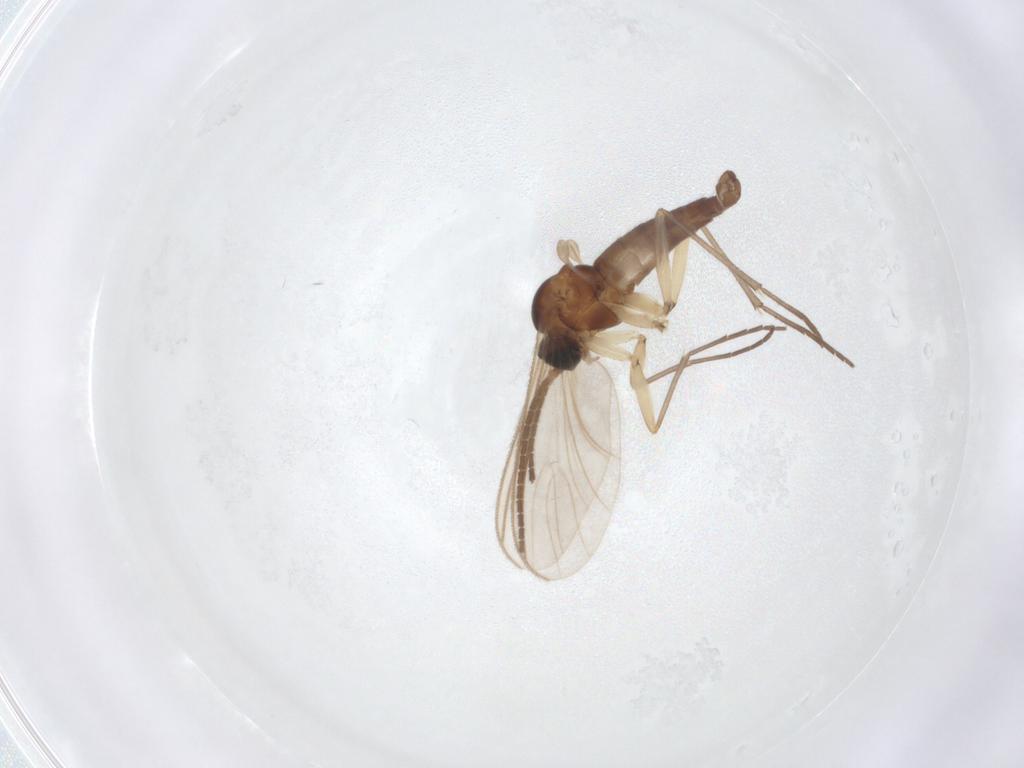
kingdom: Animalia
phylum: Arthropoda
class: Insecta
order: Diptera
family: Sciaridae
